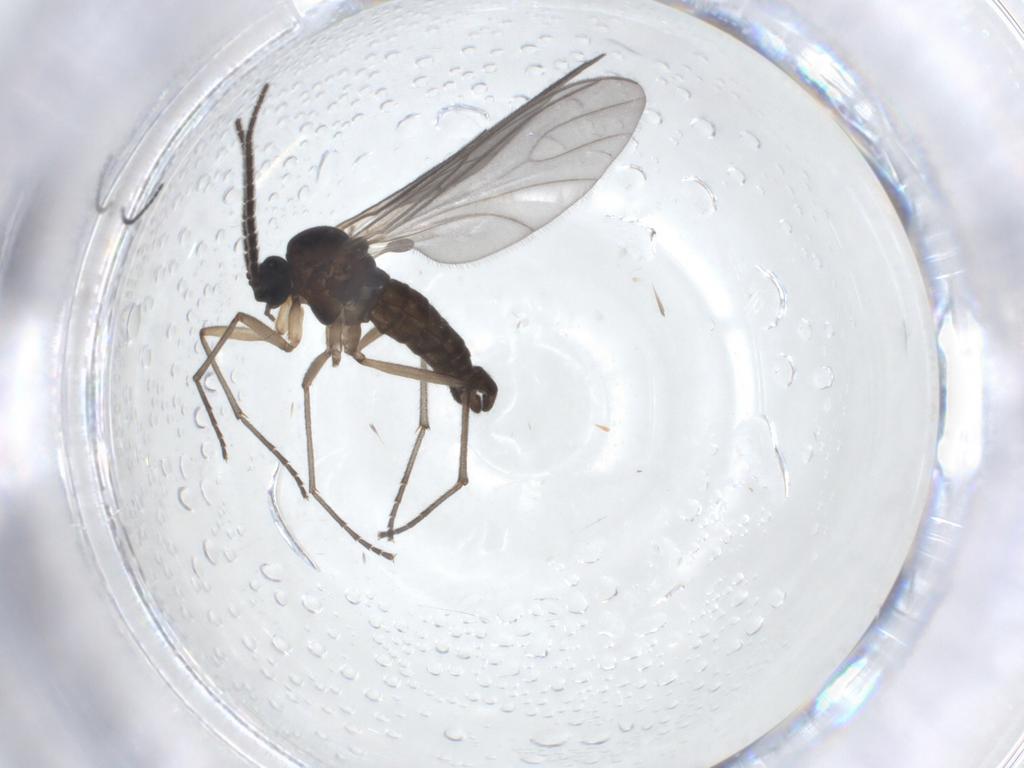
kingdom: Animalia
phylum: Arthropoda
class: Insecta
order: Diptera
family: Sciaridae
